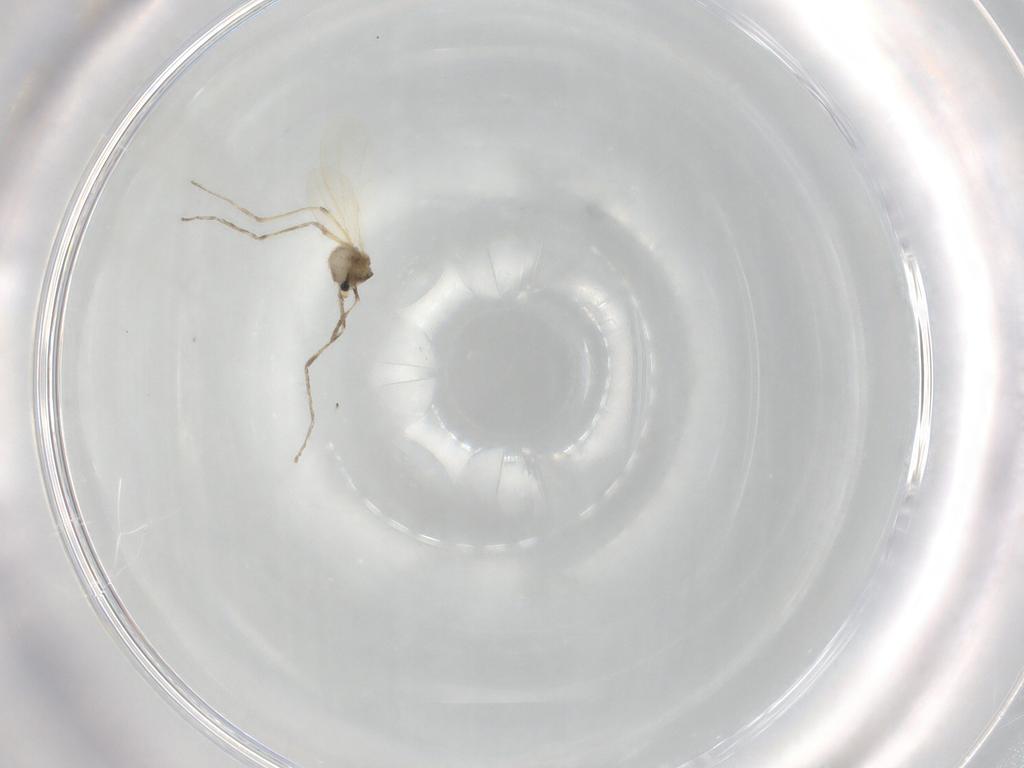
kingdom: Animalia
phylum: Arthropoda
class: Insecta
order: Diptera
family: Cecidomyiidae
